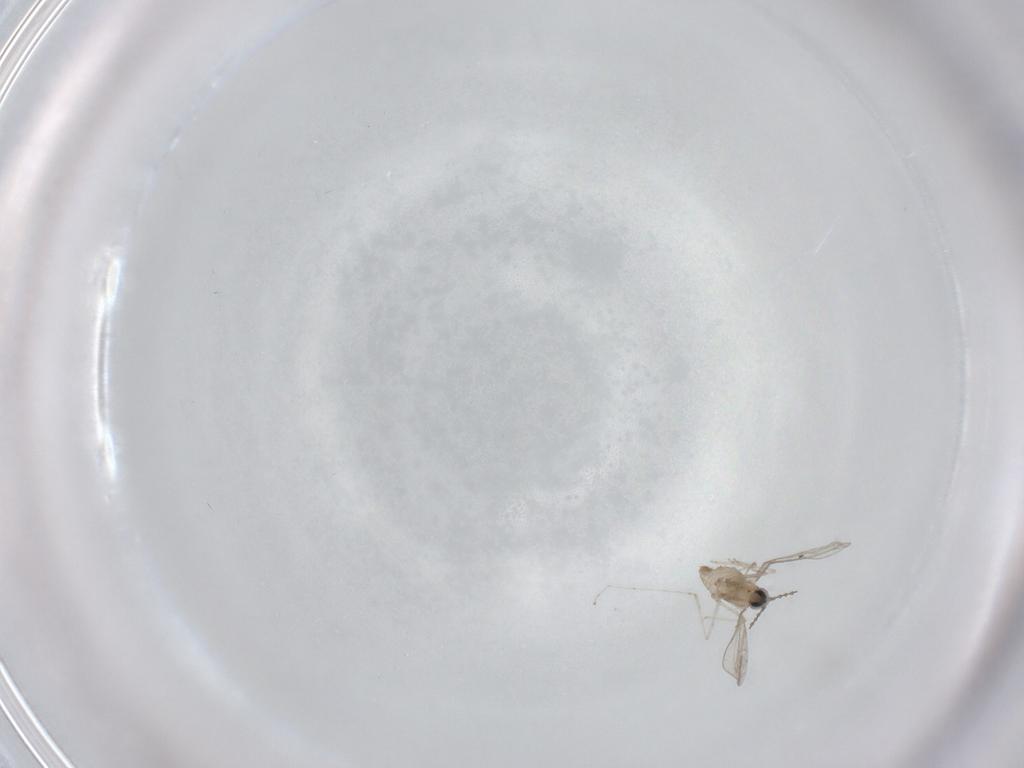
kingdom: Animalia
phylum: Arthropoda
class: Insecta
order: Diptera
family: Cecidomyiidae
